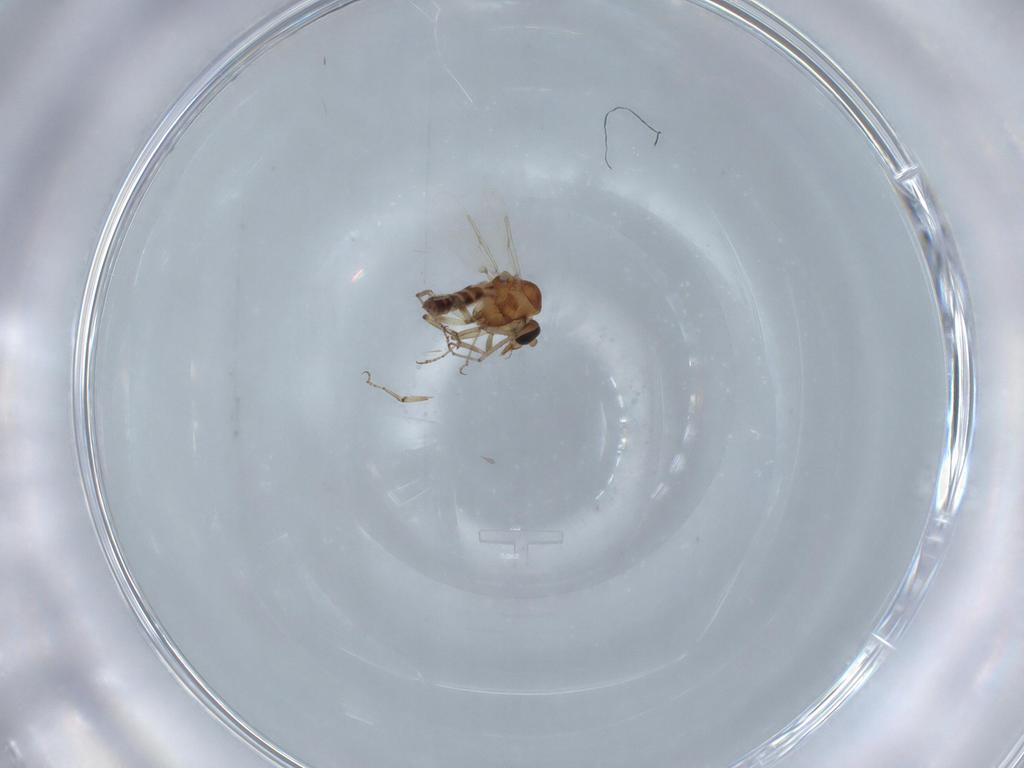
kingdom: Animalia
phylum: Arthropoda
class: Insecta
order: Diptera
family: Ceratopogonidae
